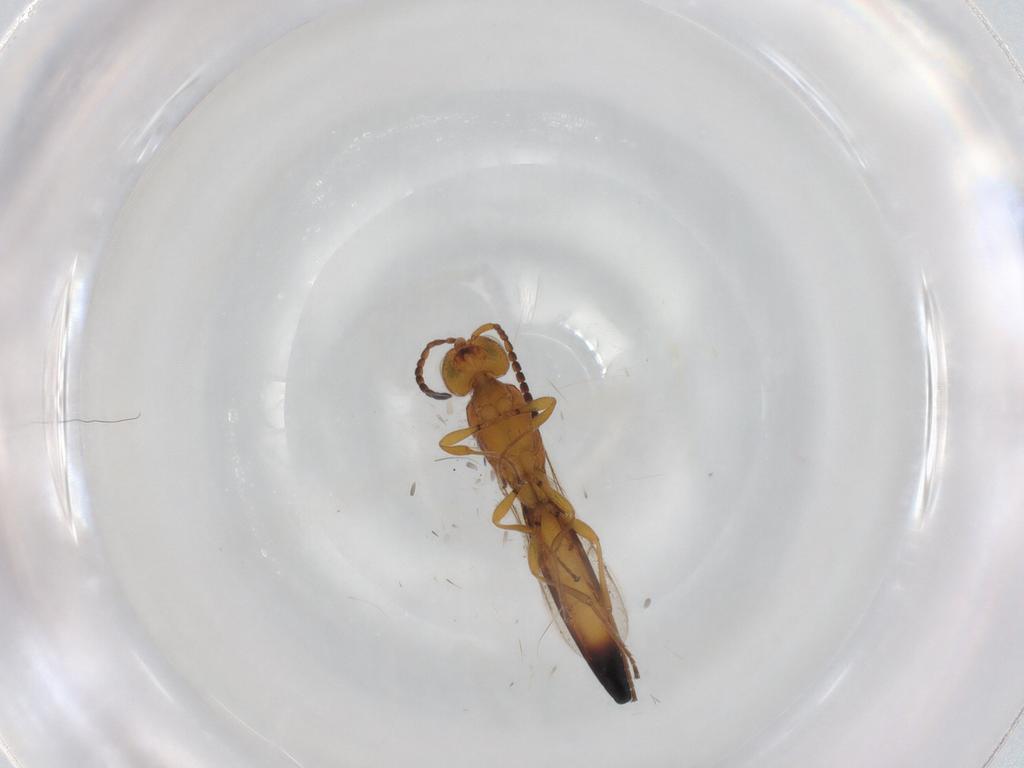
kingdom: Animalia
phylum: Arthropoda
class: Insecta
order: Hymenoptera
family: Scelionidae
